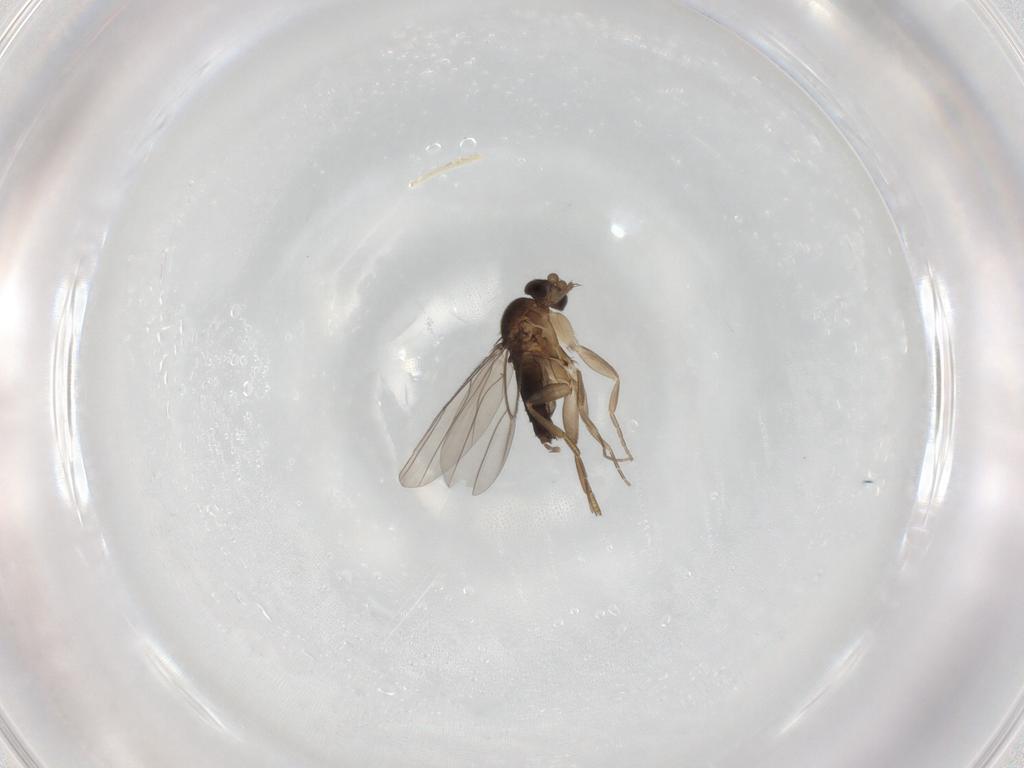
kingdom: Animalia
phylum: Arthropoda
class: Insecta
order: Diptera
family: Phoridae
